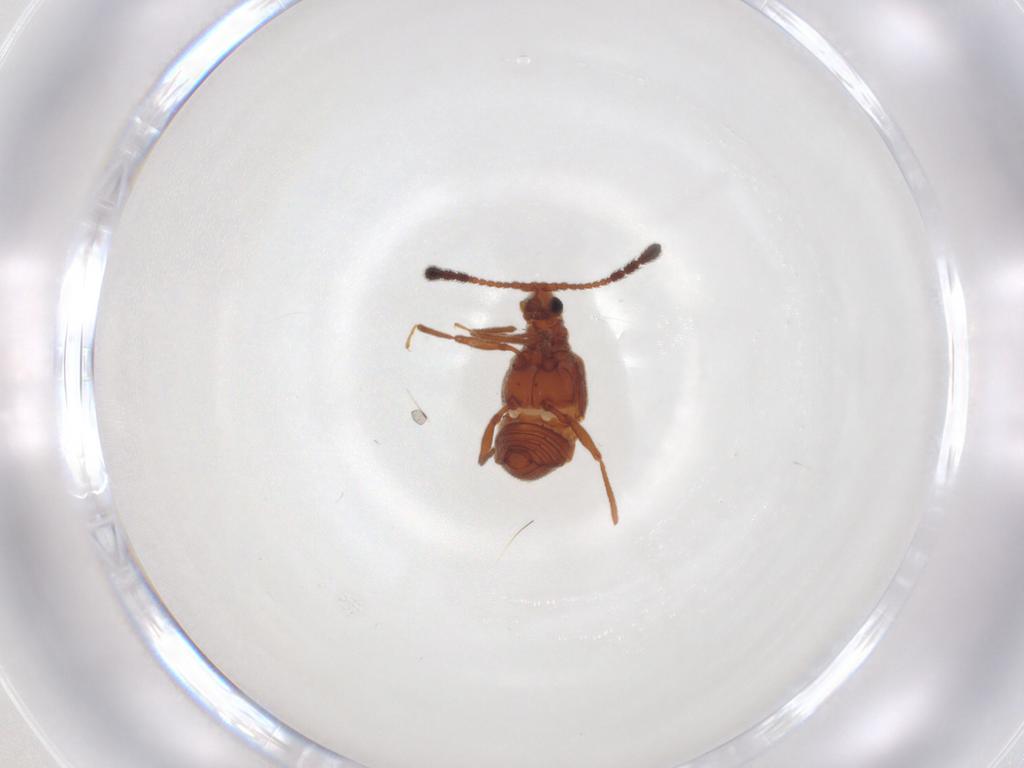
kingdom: Animalia
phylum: Arthropoda
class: Insecta
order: Coleoptera
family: Staphylinidae
